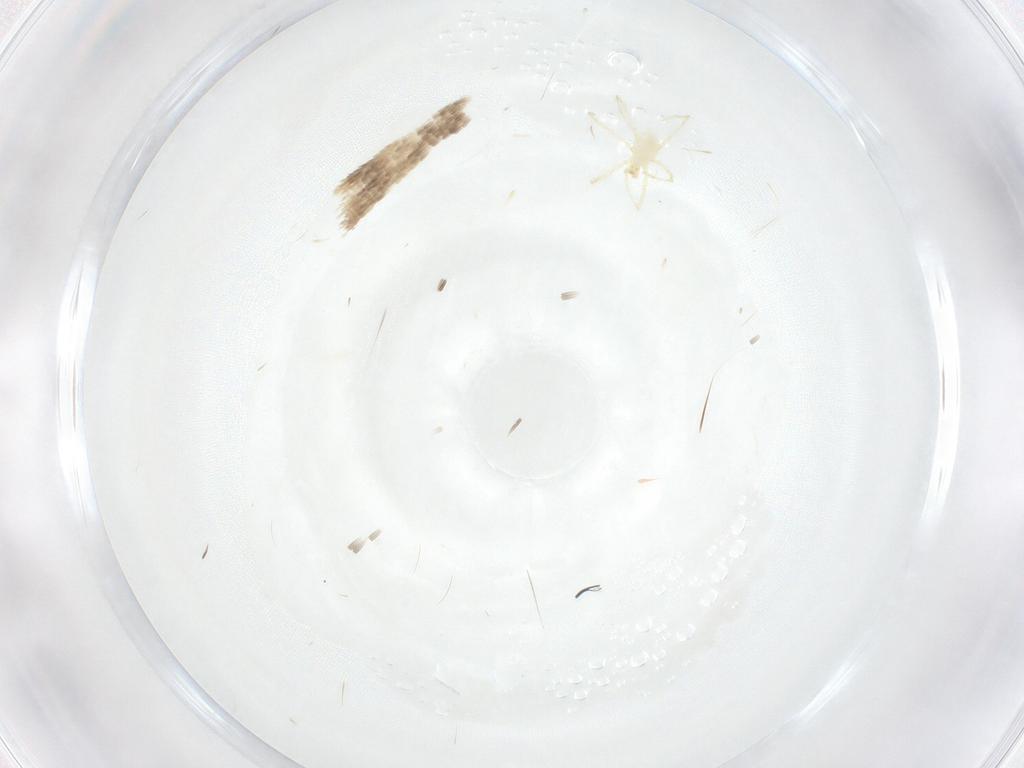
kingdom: Animalia
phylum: Arthropoda
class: Arachnida
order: Trombidiformes
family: Erythraeidae
